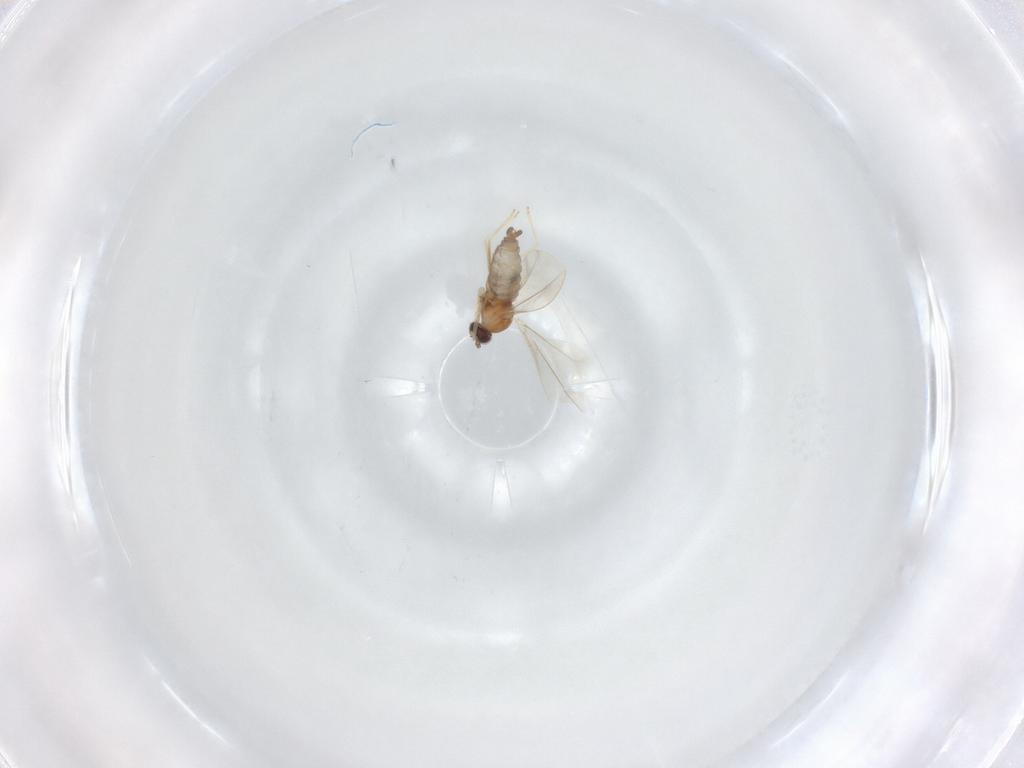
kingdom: Animalia
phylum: Arthropoda
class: Insecta
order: Diptera
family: Cecidomyiidae
